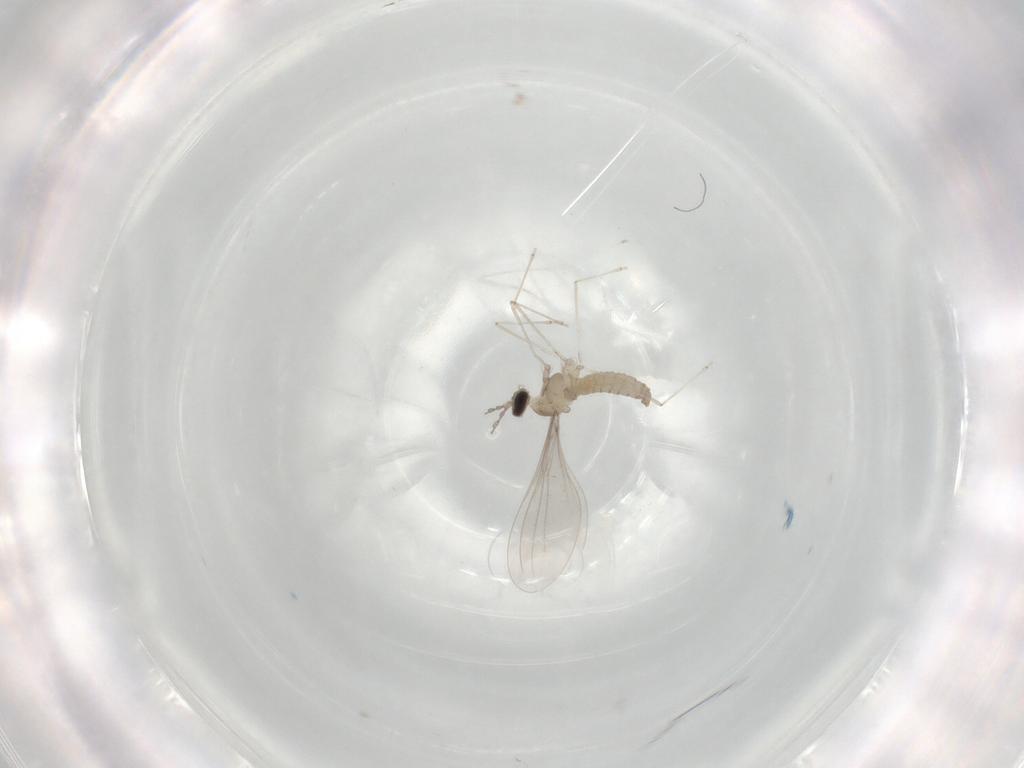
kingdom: Animalia
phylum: Arthropoda
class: Insecta
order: Diptera
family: Cecidomyiidae
